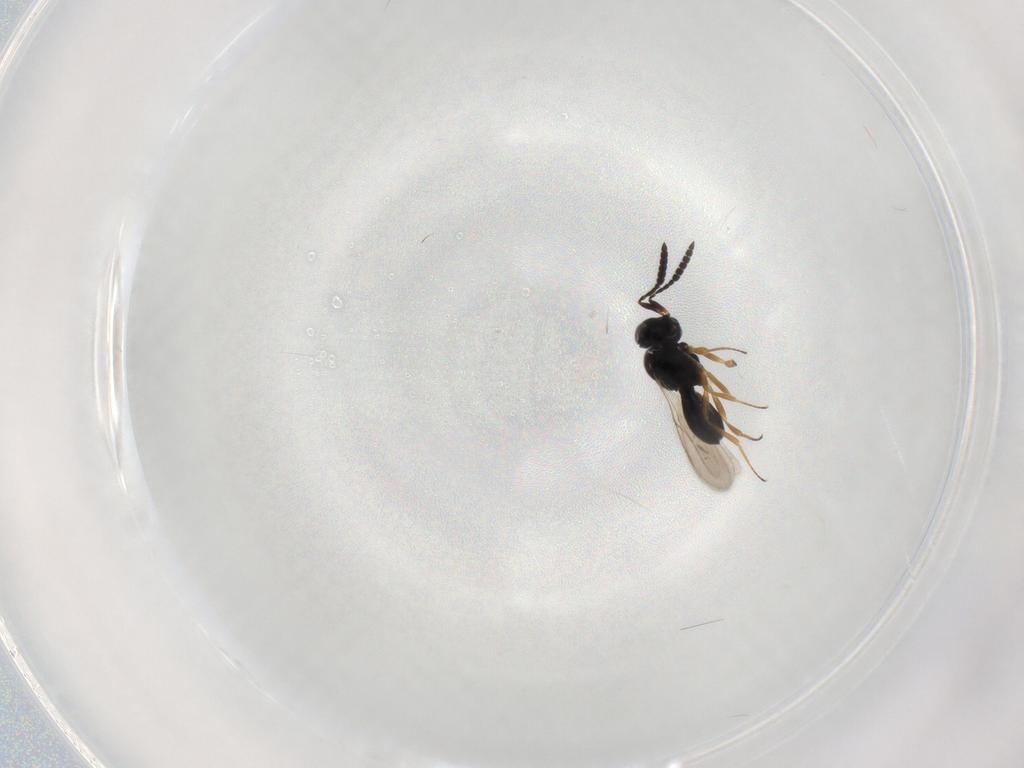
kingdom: Animalia
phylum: Arthropoda
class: Insecta
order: Hymenoptera
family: Scelionidae
